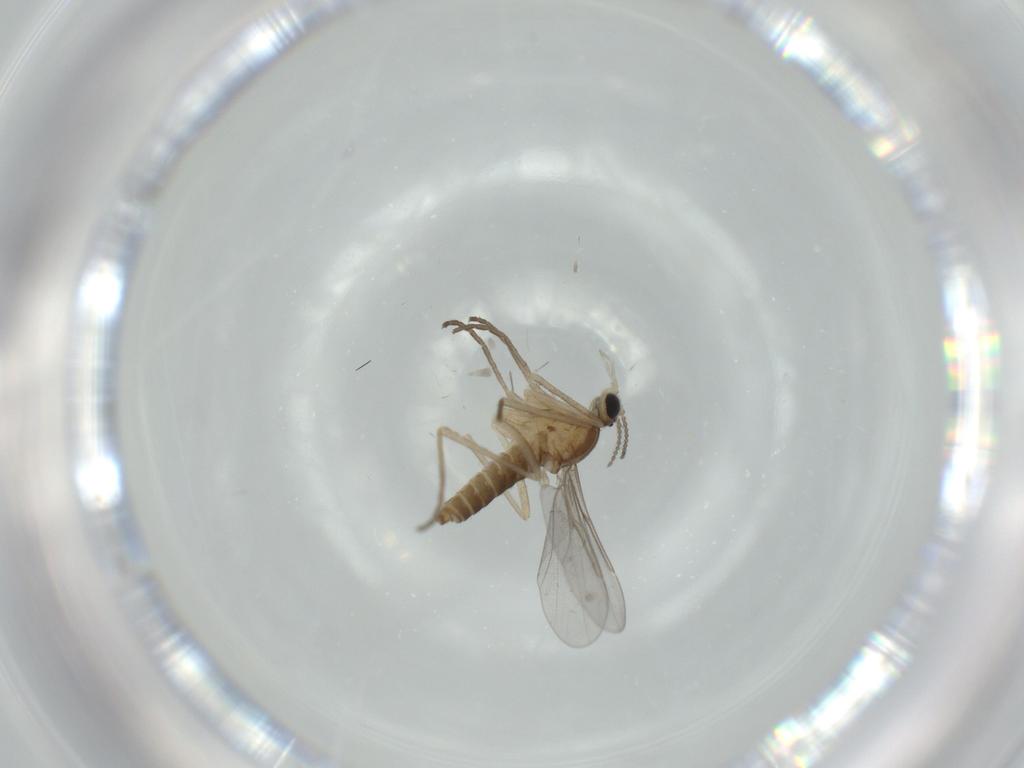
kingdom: Animalia
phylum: Arthropoda
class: Insecta
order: Diptera
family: Cecidomyiidae
